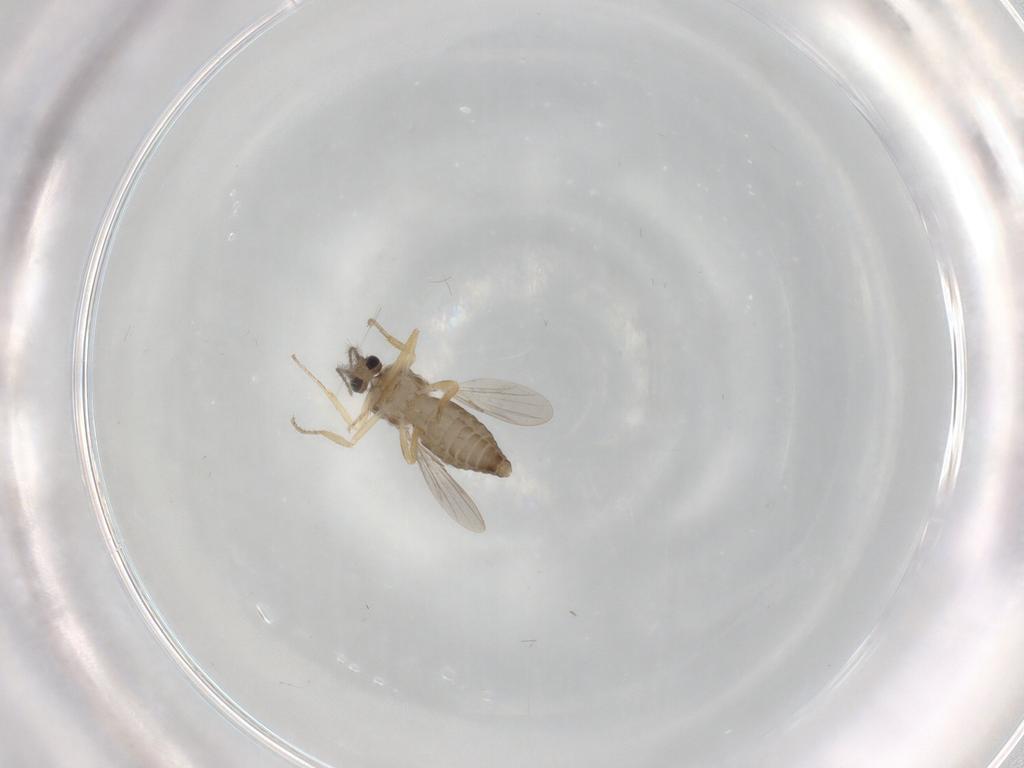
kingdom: Animalia
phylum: Arthropoda
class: Insecta
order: Diptera
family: Ceratopogonidae
